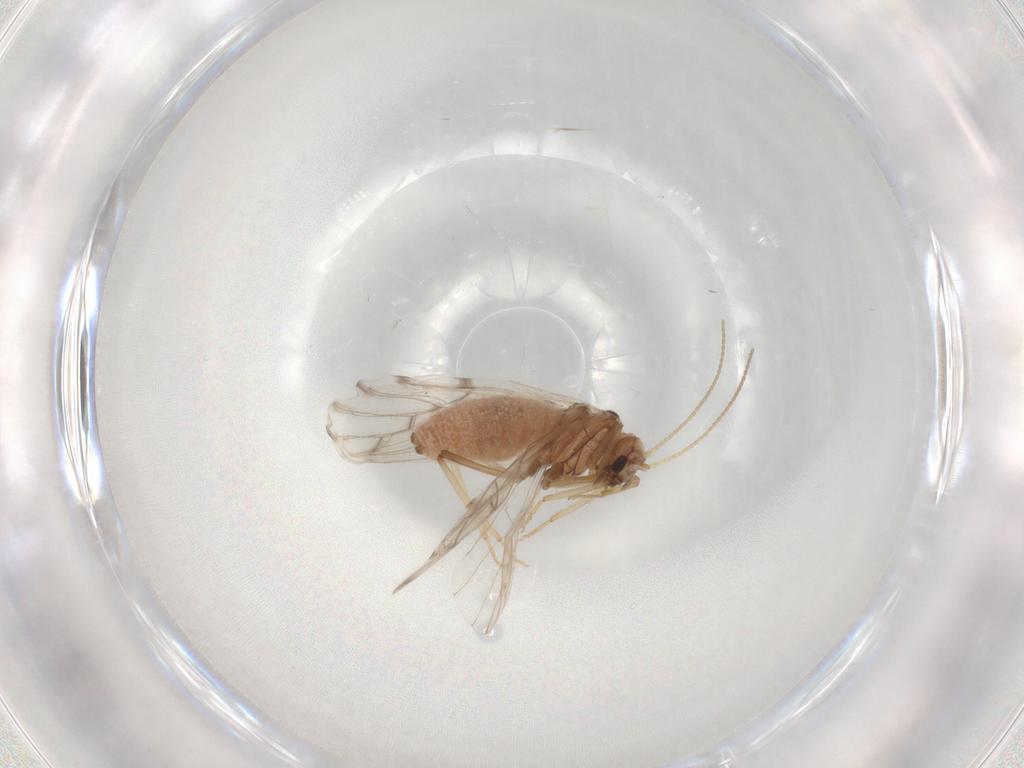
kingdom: Animalia
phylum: Arthropoda
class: Insecta
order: Neuroptera
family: Coniopterygidae
